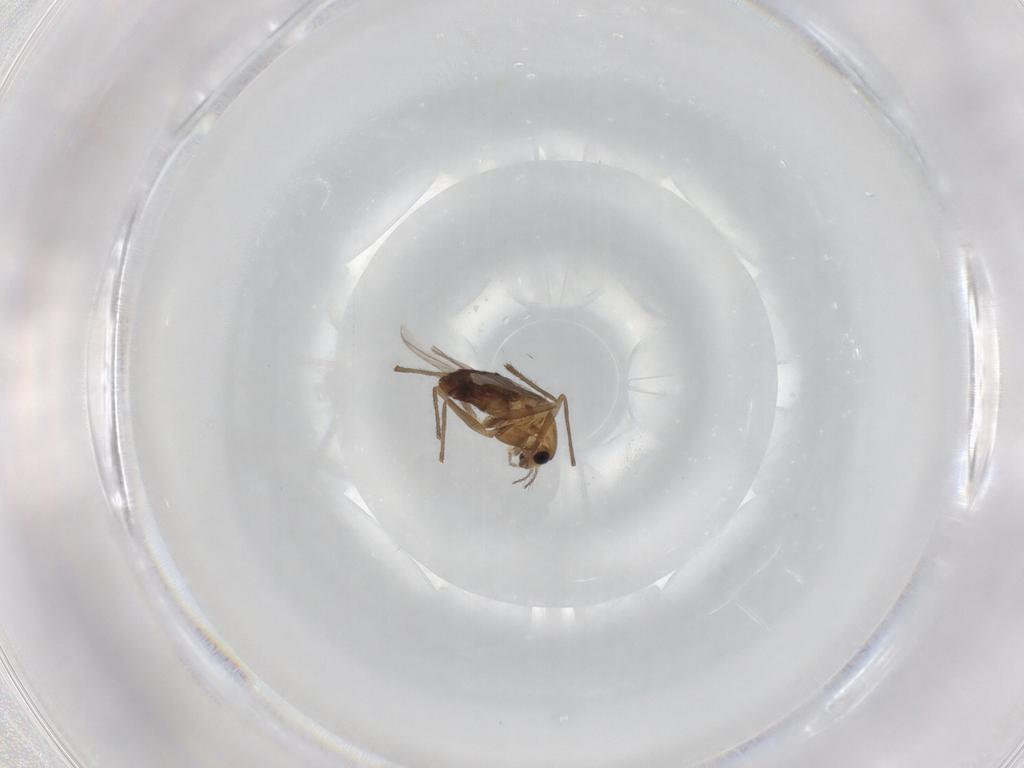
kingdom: Animalia
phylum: Arthropoda
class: Insecta
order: Diptera
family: Chironomidae
